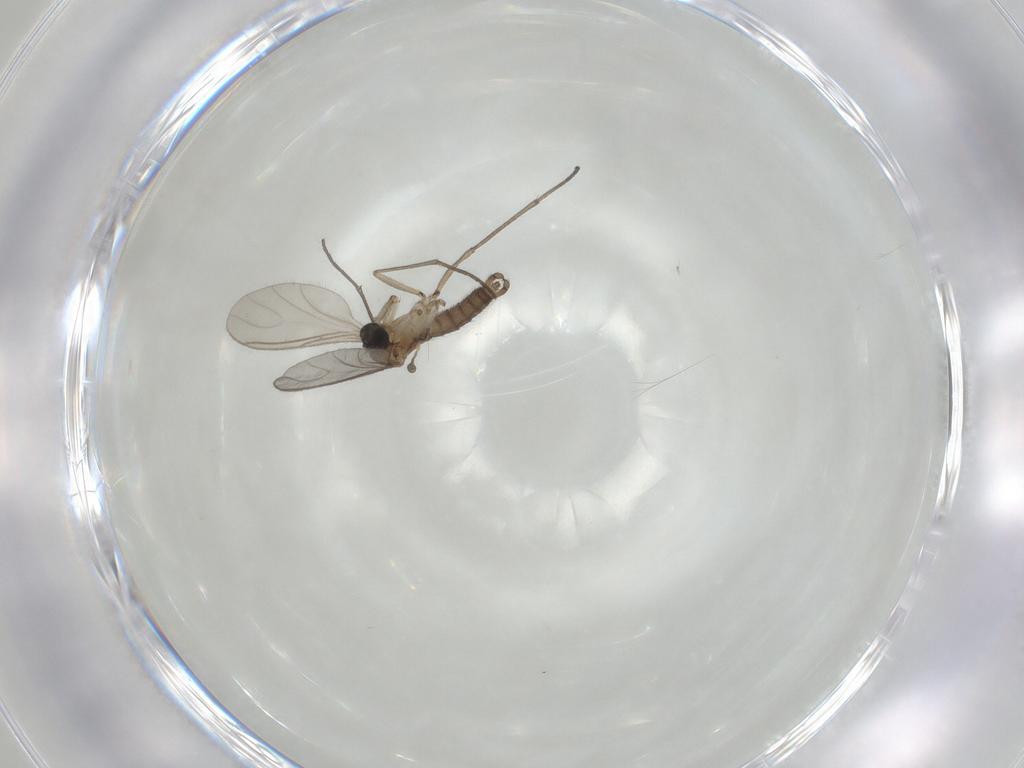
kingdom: Animalia
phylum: Arthropoda
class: Insecta
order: Diptera
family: Sciaridae
